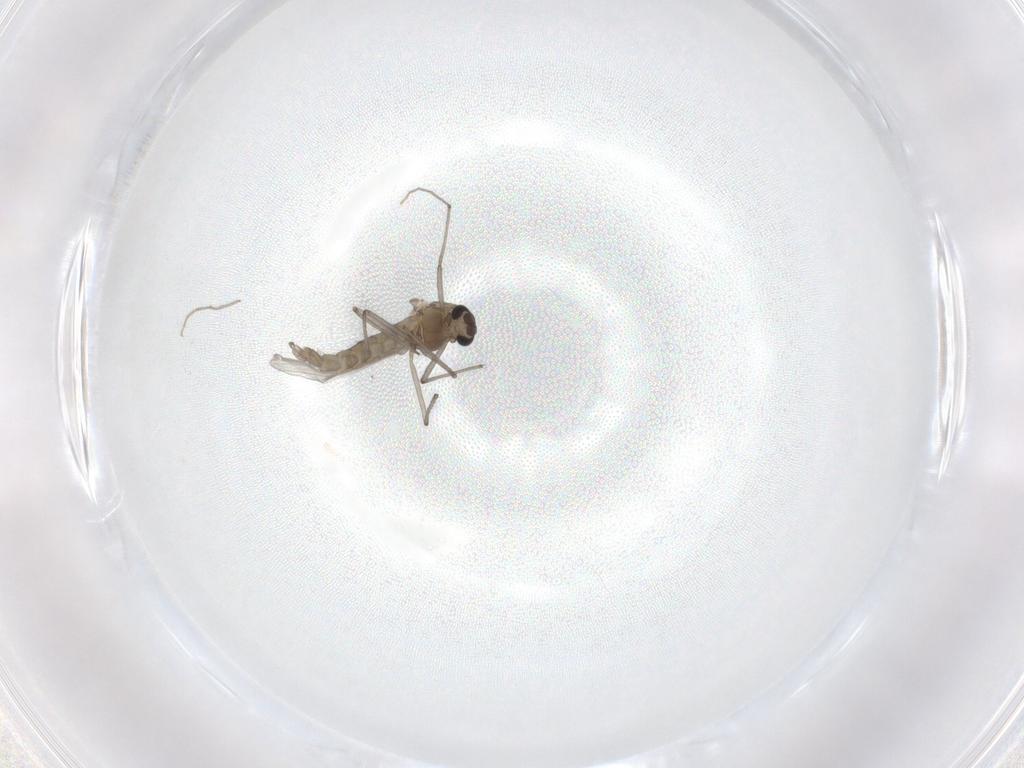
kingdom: Animalia
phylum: Arthropoda
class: Insecta
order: Diptera
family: Chironomidae
